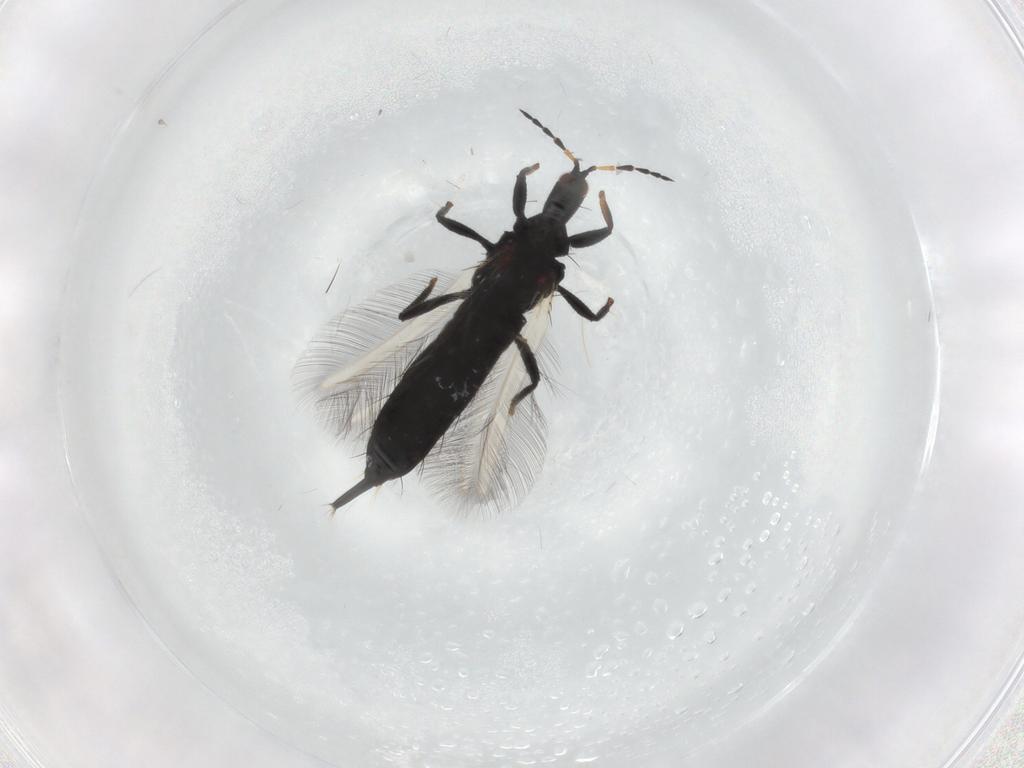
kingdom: Animalia
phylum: Arthropoda
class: Insecta
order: Thysanoptera
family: Phlaeothripidae
